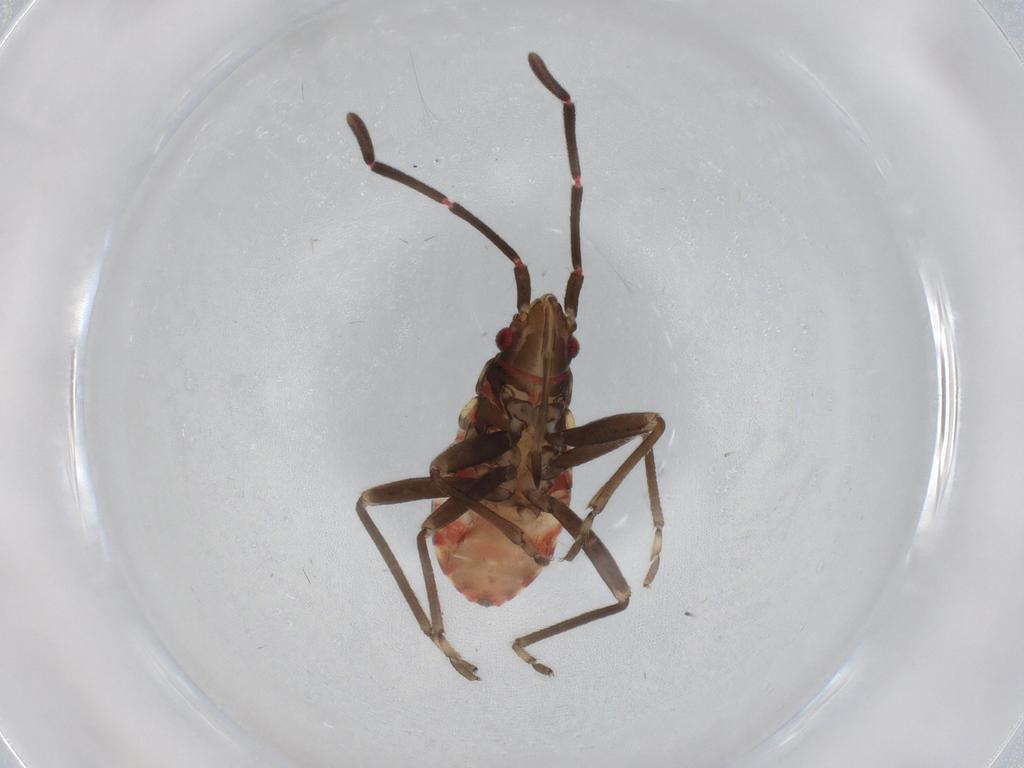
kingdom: Animalia
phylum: Arthropoda
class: Insecta
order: Hemiptera
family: Rhyparochromidae
